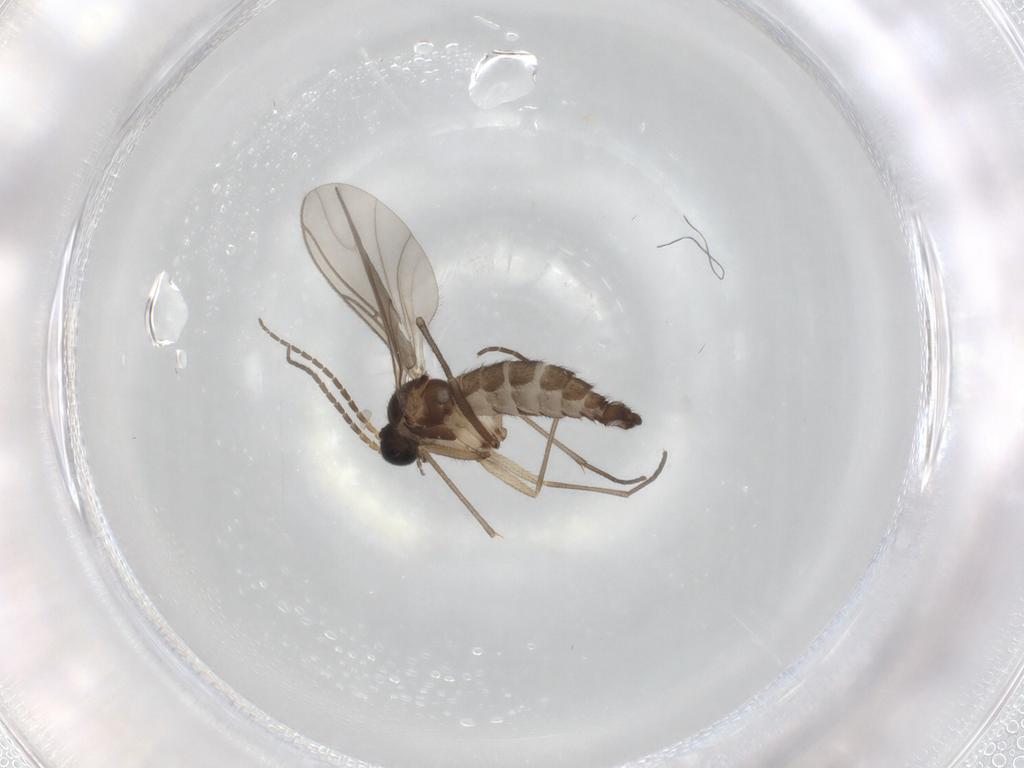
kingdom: Animalia
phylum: Arthropoda
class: Insecta
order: Diptera
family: Sciaridae
